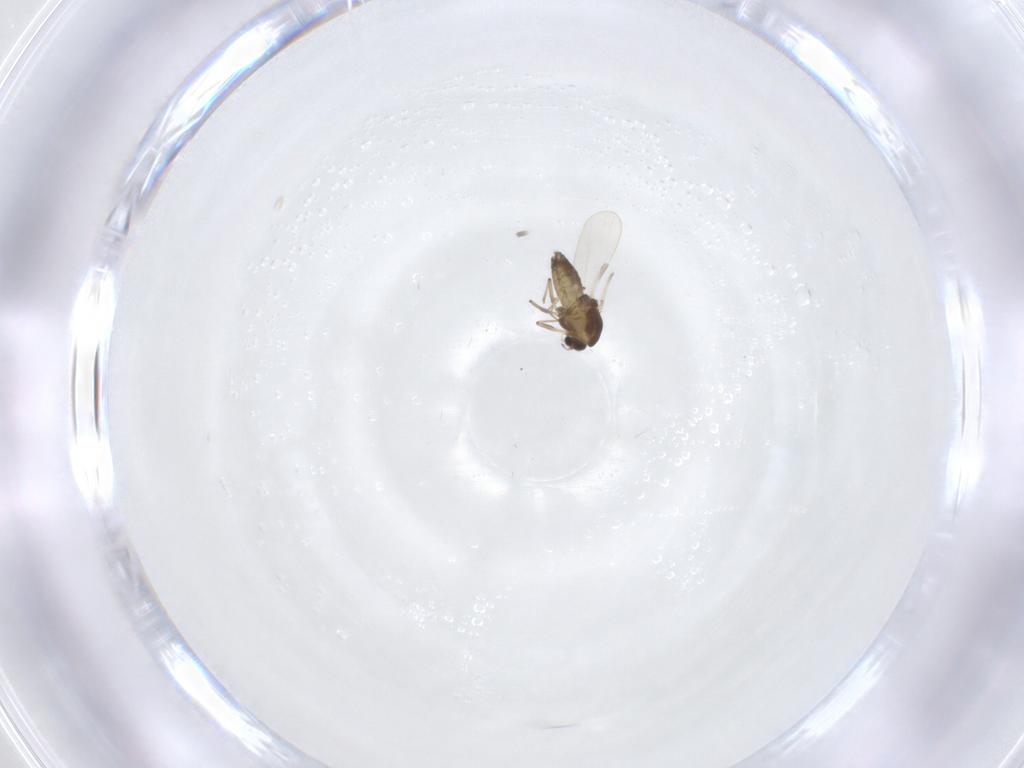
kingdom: Animalia
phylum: Arthropoda
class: Insecta
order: Diptera
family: Chironomidae
